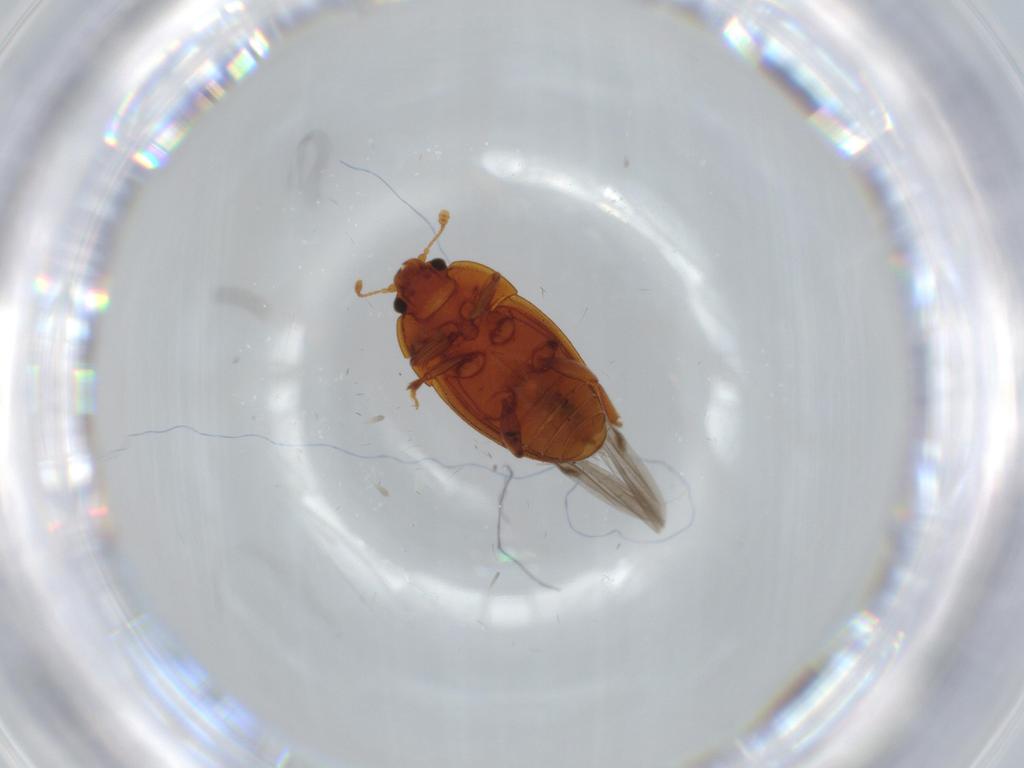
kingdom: Animalia
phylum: Arthropoda
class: Insecta
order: Coleoptera
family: Nitidulidae
